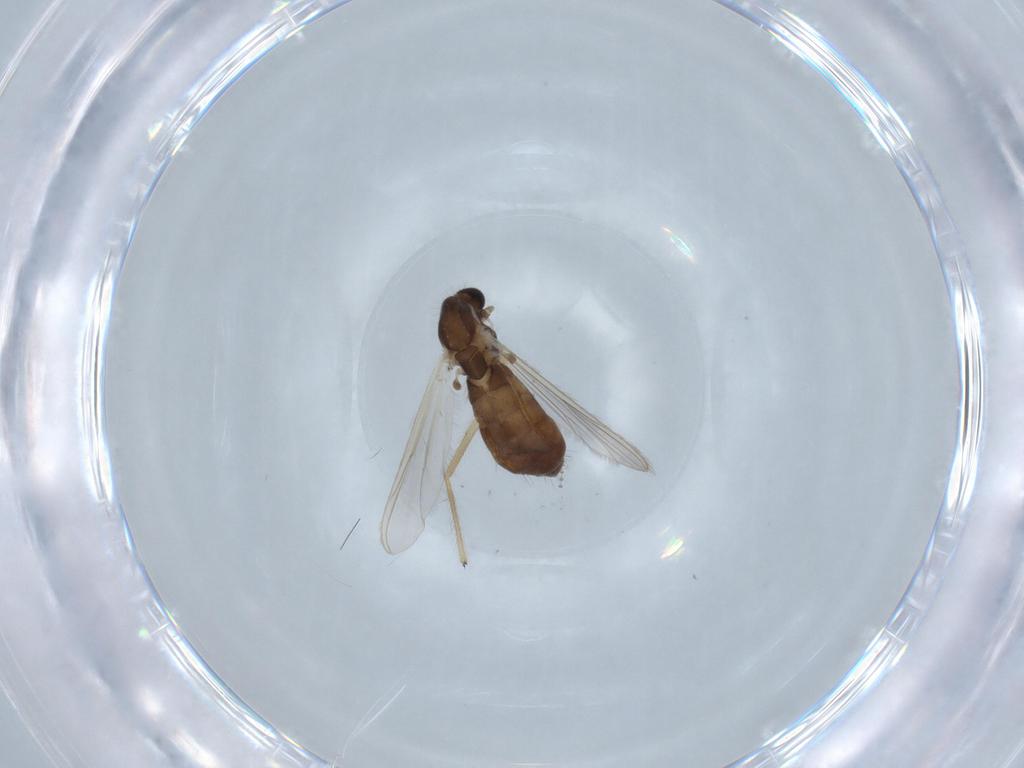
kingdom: Animalia
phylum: Arthropoda
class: Insecta
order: Diptera
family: Chironomidae
